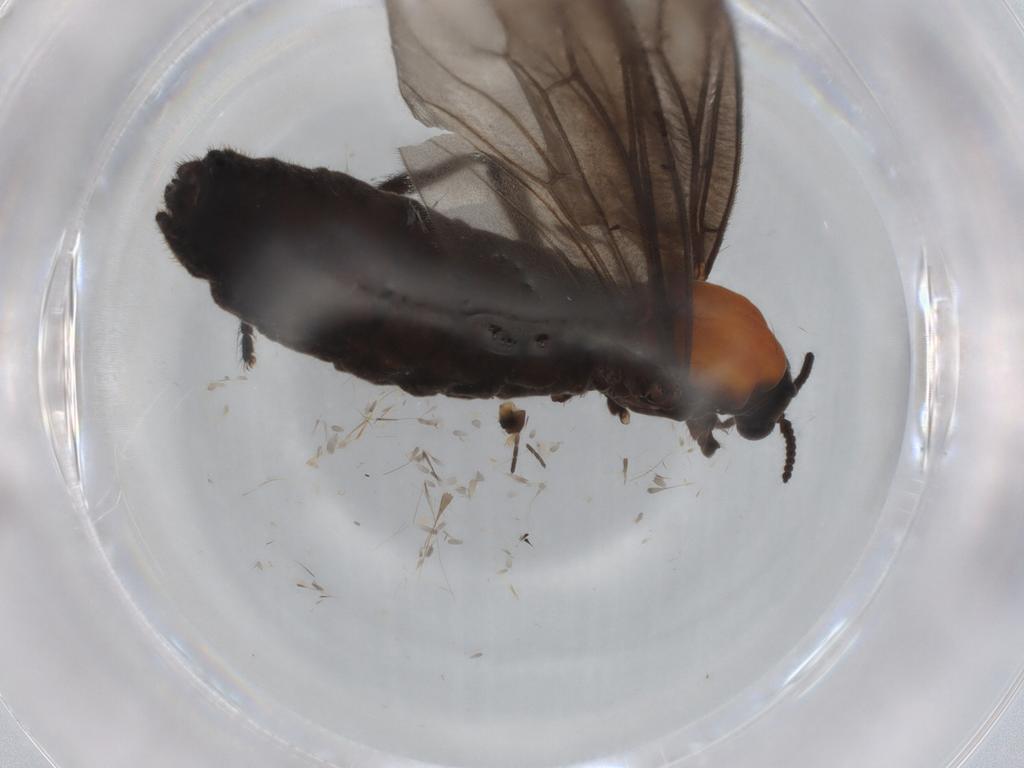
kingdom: Animalia
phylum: Arthropoda
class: Insecta
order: Diptera
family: Bibionidae
